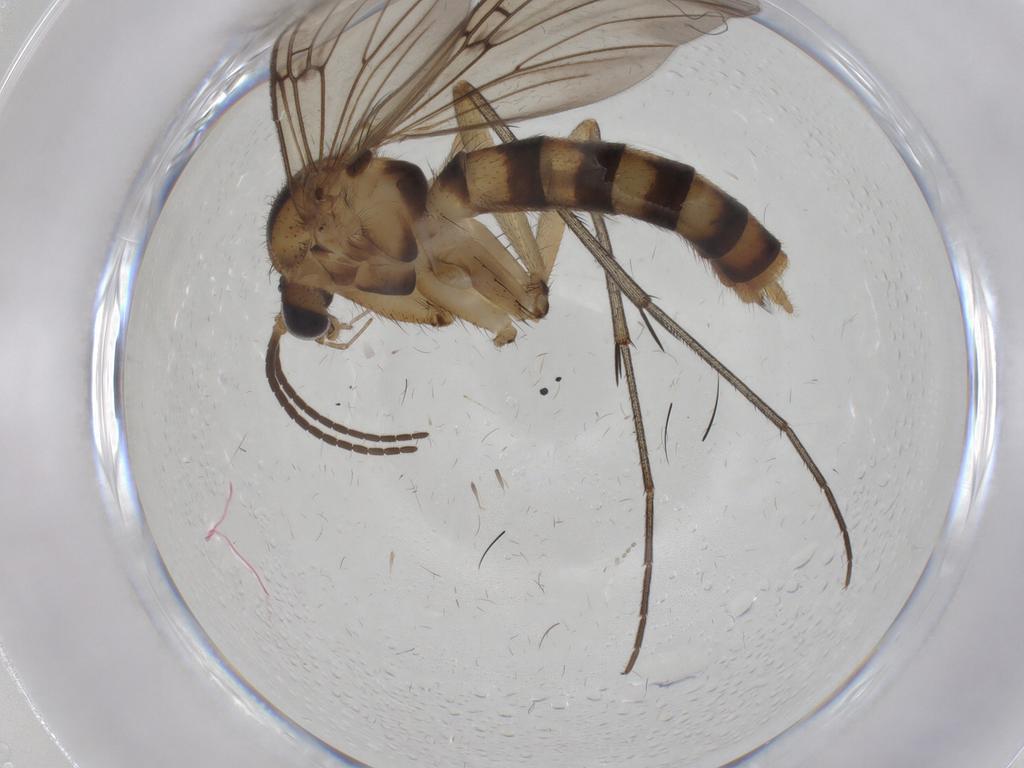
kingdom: Animalia
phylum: Arthropoda
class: Insecta
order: Diptera
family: Mycetophilidae
